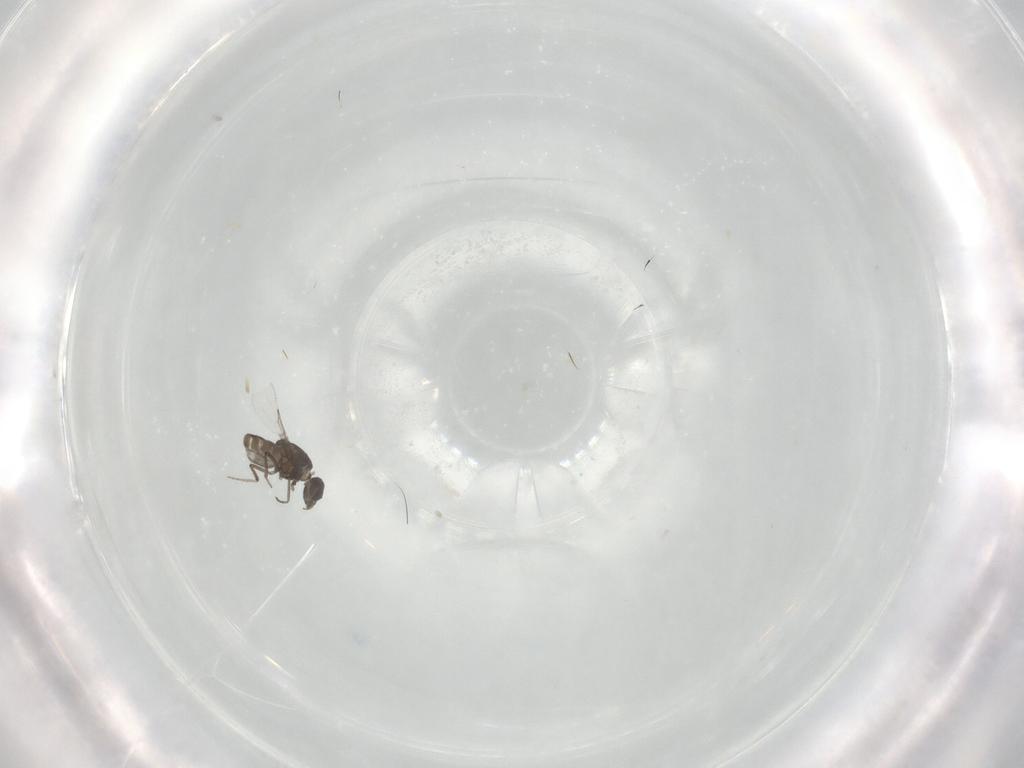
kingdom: Animalia
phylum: Arthropoda
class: Insecta
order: Diptera
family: Ceratopogonidae
